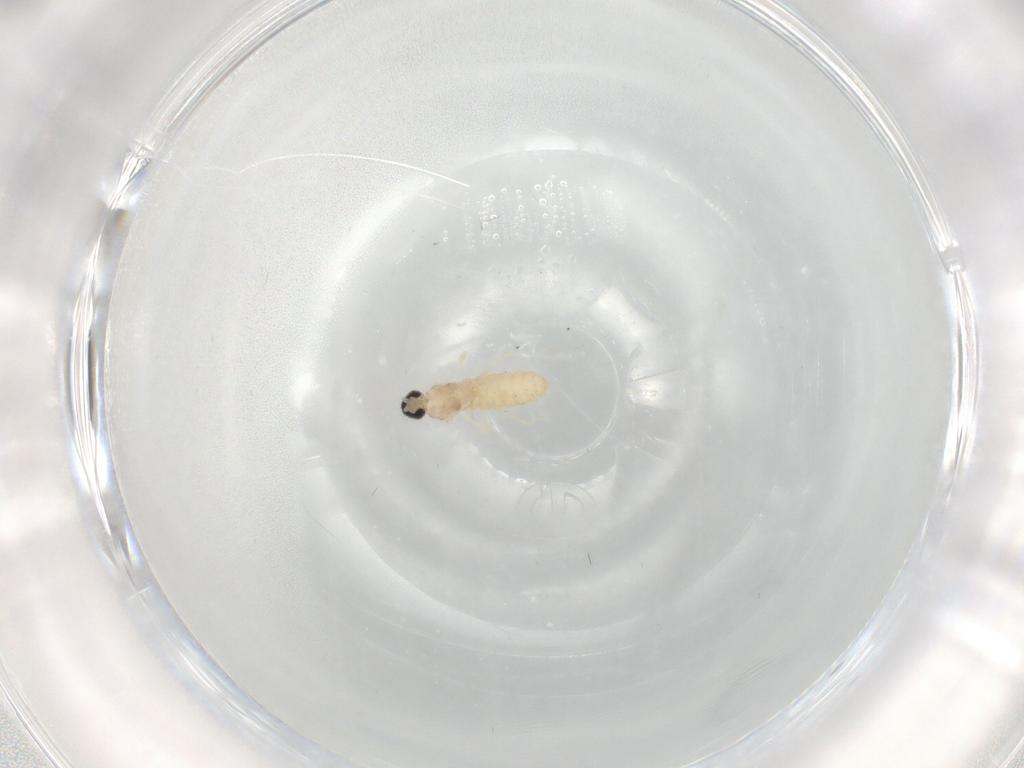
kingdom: Animalia
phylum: Arthropoda
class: Insecta
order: Diptera
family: Cecidomyiidae
